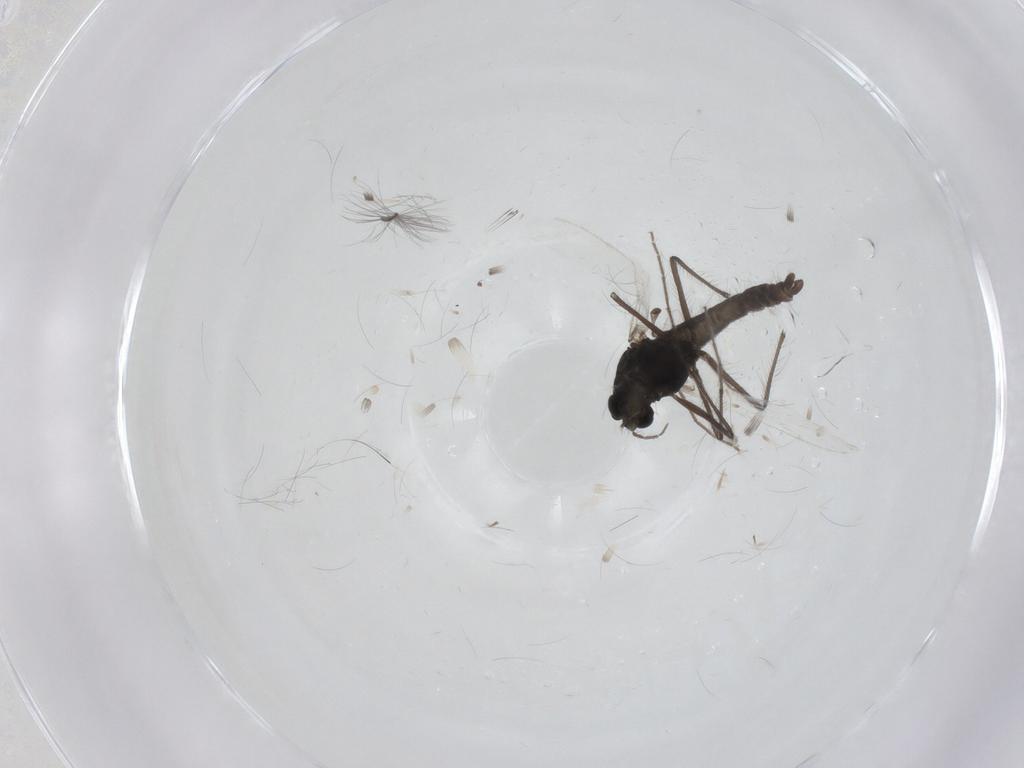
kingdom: Animalia
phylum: Arthropoda
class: Insecta
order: Diptera
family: Chironomidae
